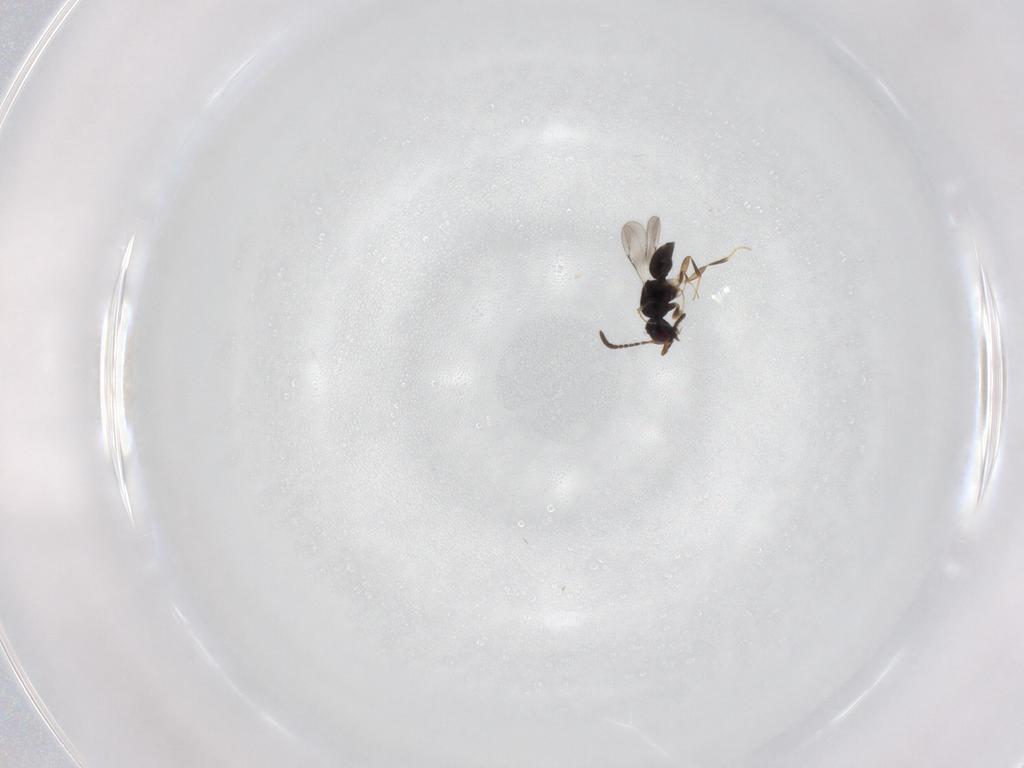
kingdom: Animalia
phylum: Arthropoda
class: Insecta
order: Hymenoptera
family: Scelionidae
